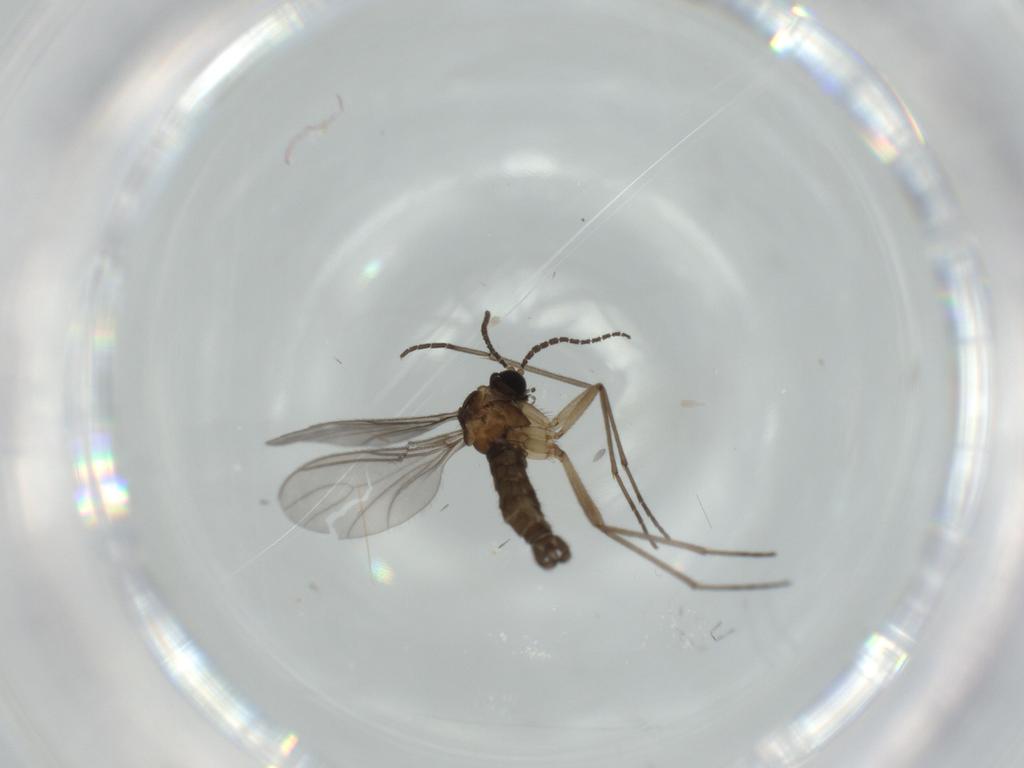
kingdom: Animalia
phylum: Arthropoda
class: Insecta
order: Diptera
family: Sciaridae
